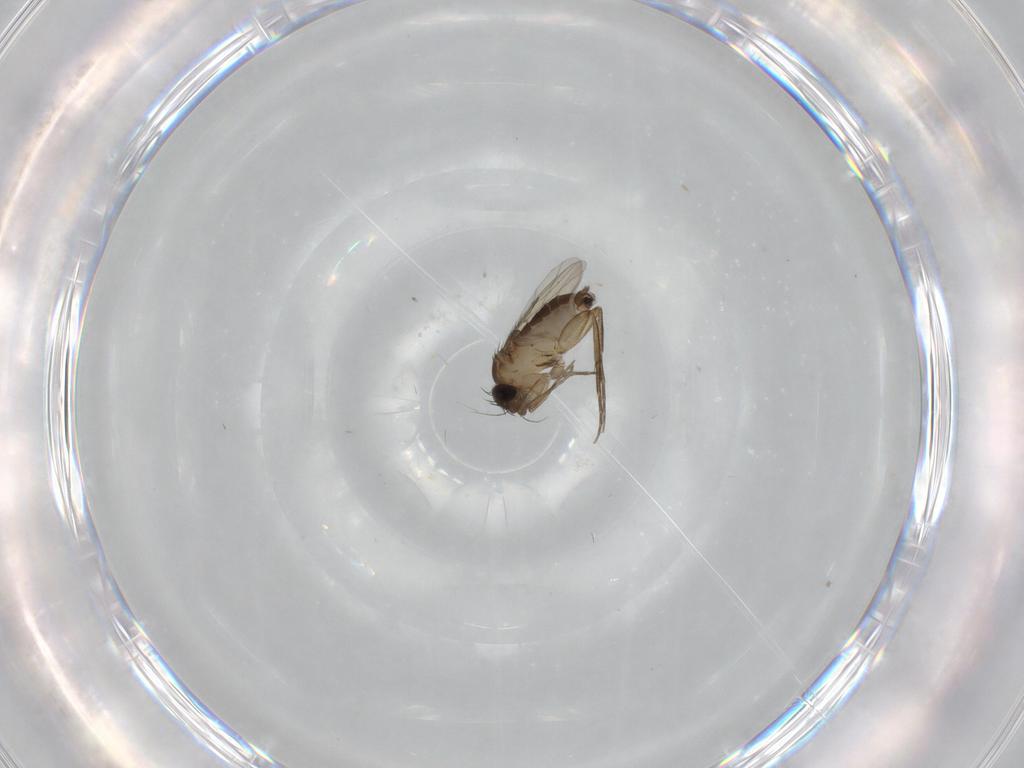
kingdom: Animalia
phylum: Arthropoda
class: Insecta
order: Diptera
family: Phoridae
